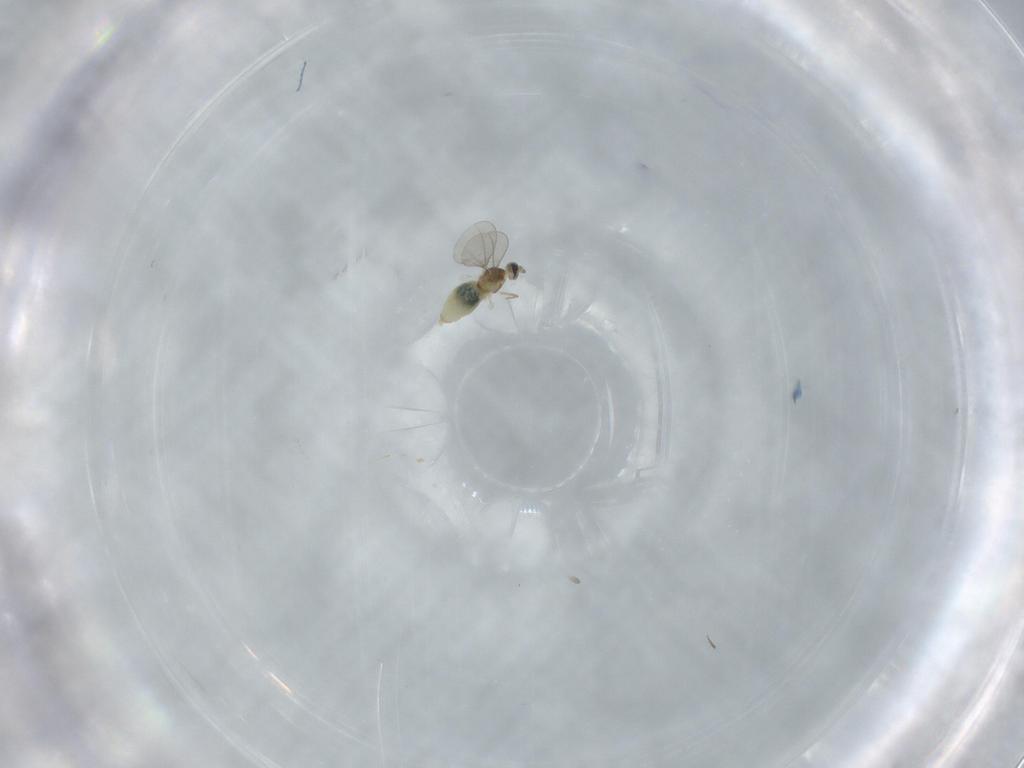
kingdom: Animalia
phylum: Arthropoda
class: Insecta
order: Diptera
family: Cecidomyiidae
